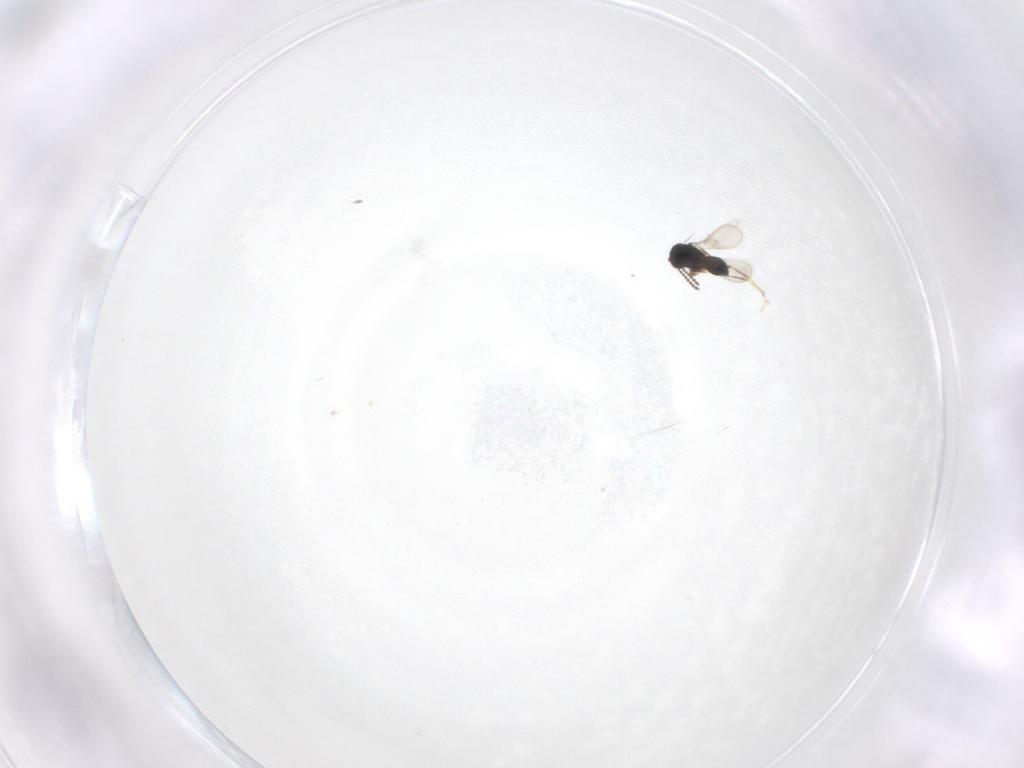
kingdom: Animalia
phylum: Arthropoda
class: Insecta
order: Hymenoptera
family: Scelionidae
